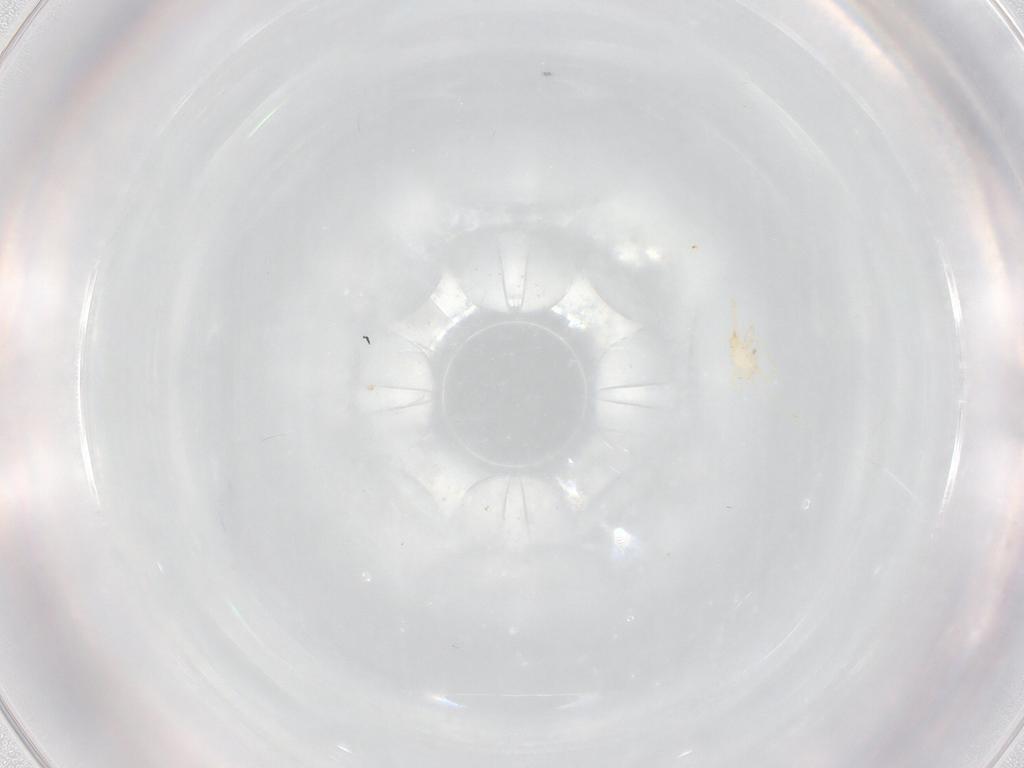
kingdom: Animalia
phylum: Arthropoda
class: Arachnida
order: Trombidiformes
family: Erythraeidae
